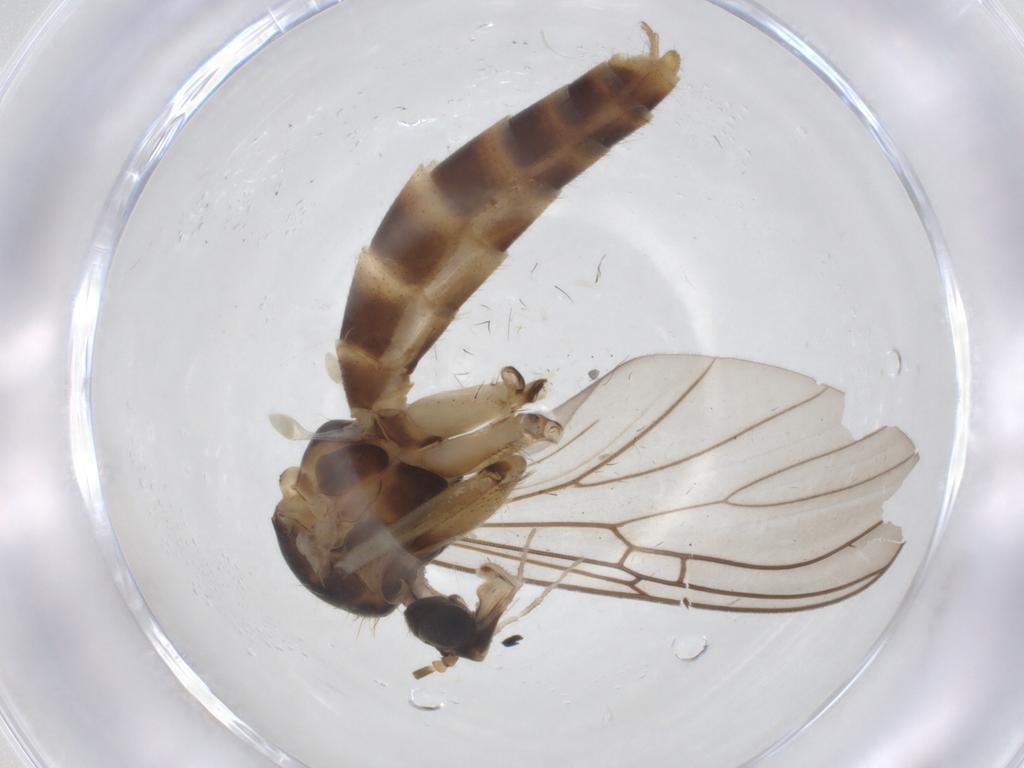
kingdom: Animalia
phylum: Arthropoda
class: Insecta
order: Diptera
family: Mycetophilidae
